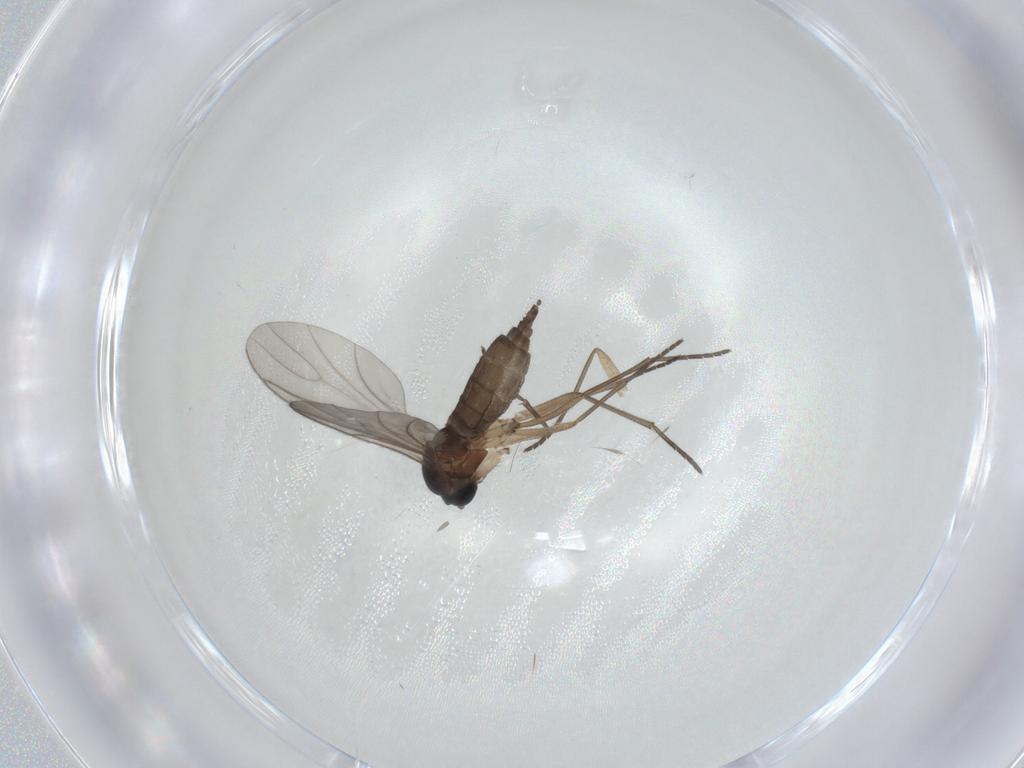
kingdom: Animalia
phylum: Arthropoda
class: Insecta
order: Diptera
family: Sciaridae
